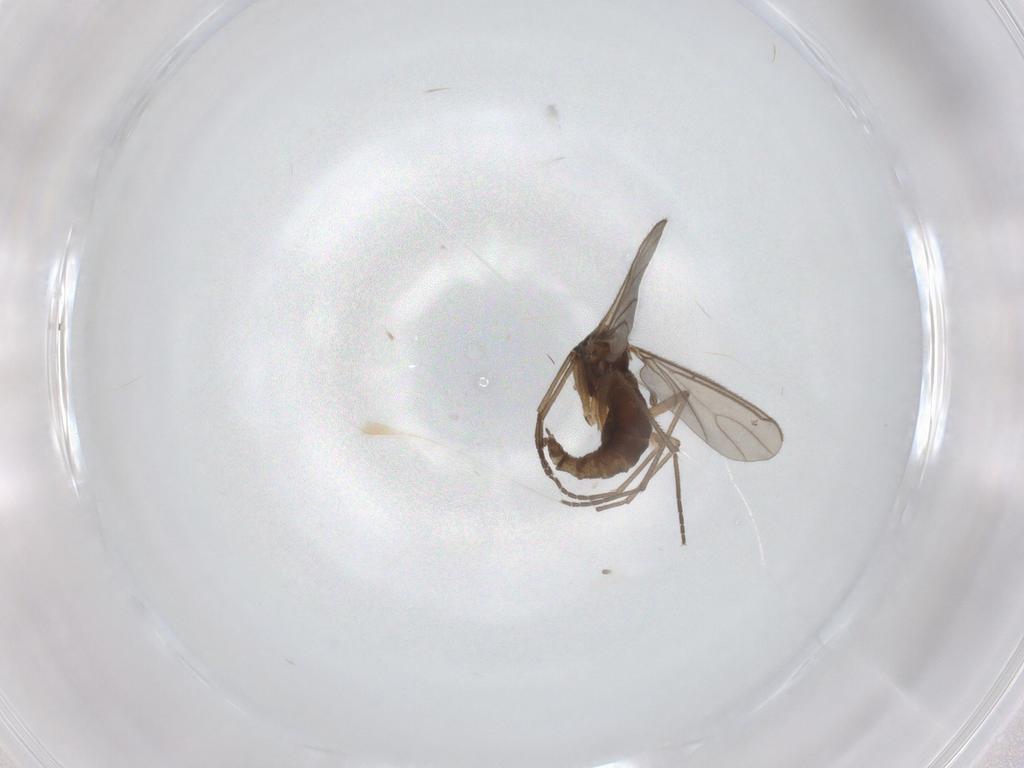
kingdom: Animalia
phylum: Arthropoda
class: Insecta
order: Diptera
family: Sciaridae
